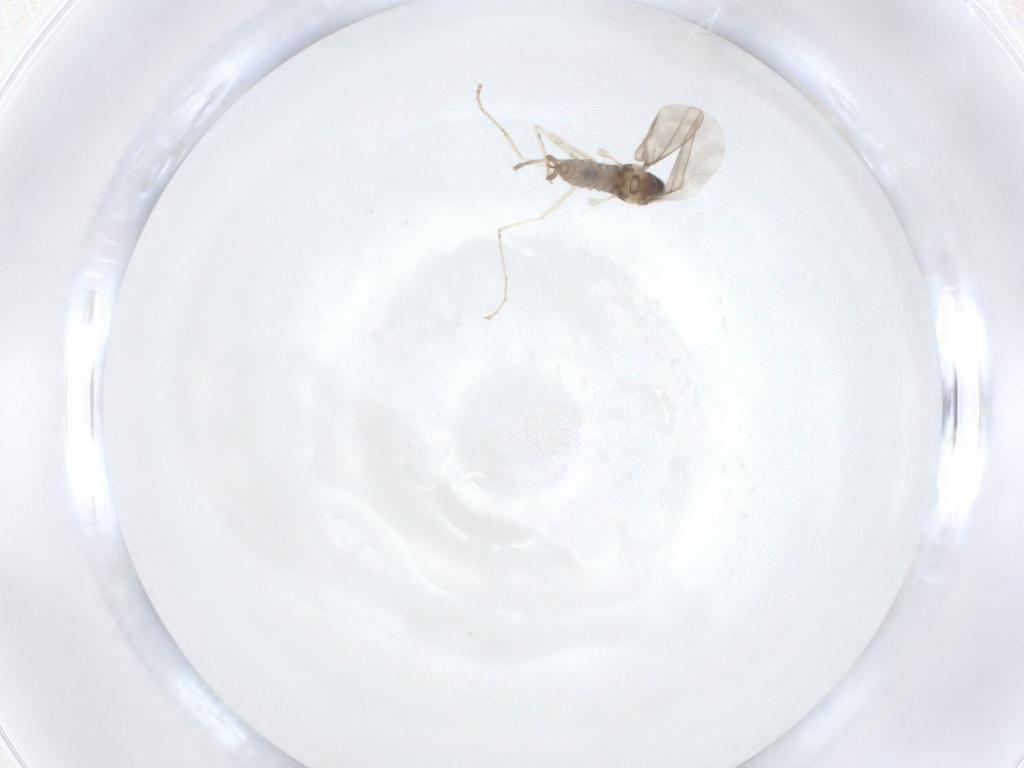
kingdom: Animalia
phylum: Arthropoda
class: Insecta
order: Diptera
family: Cecidomyiidae
